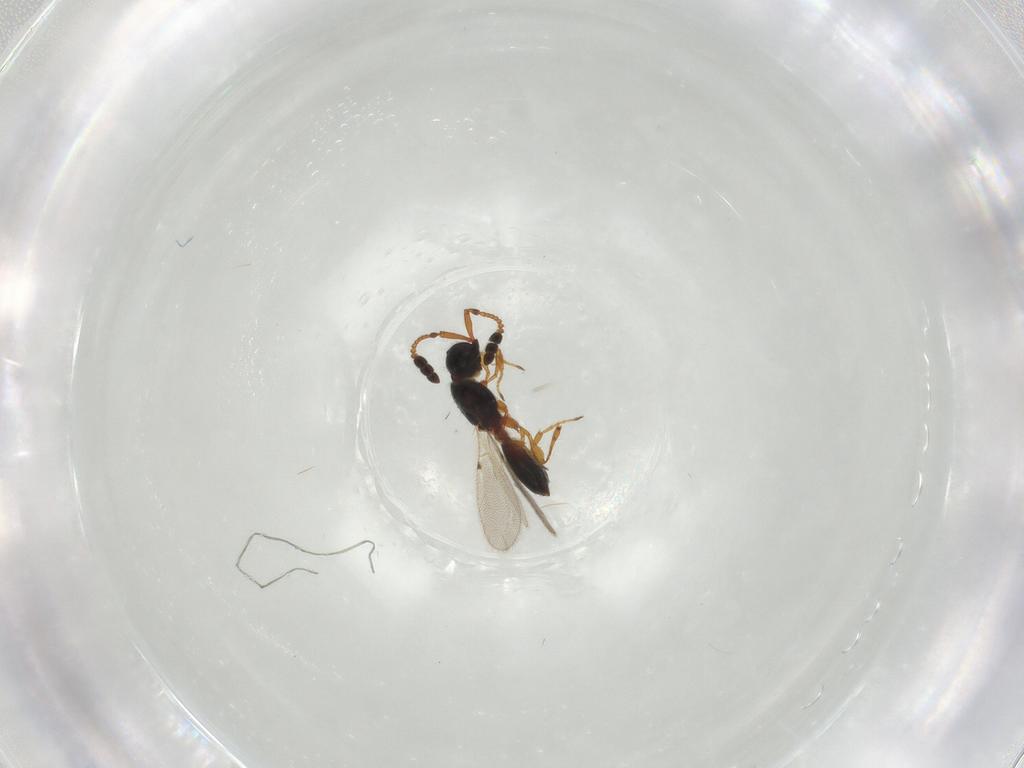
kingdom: Animalia
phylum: Arthropoda
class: Insecta
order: Hymenoptera
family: Diapriidae
